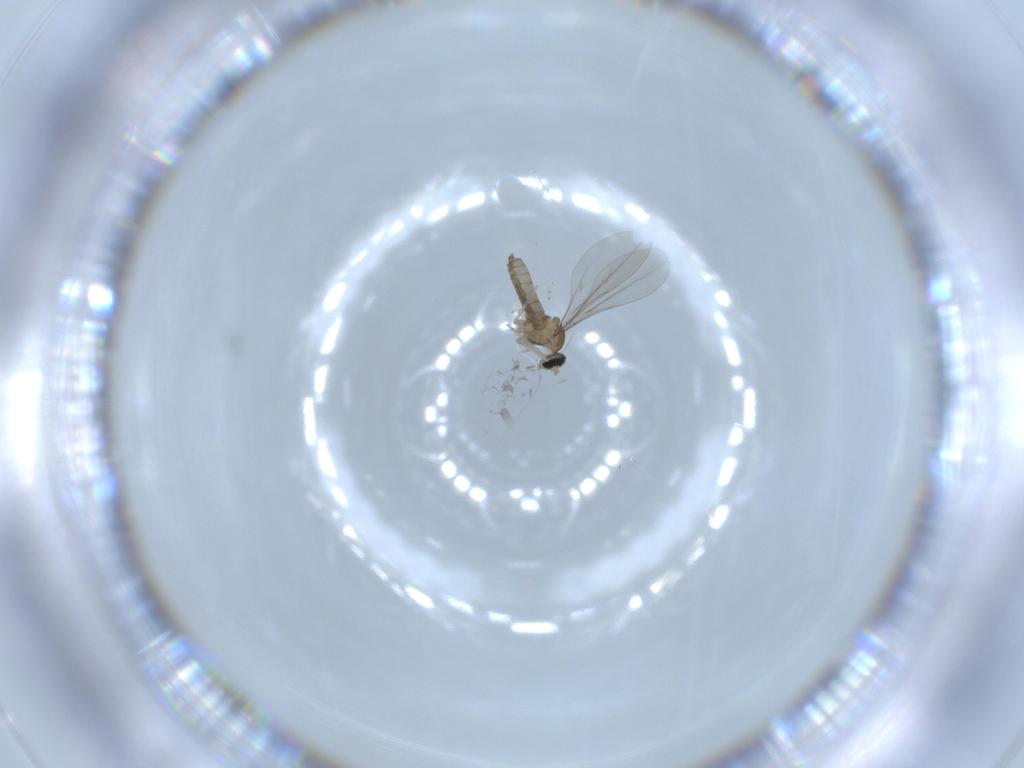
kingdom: Animalia
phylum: Arthropoda
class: Insecta
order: Diptera
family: Cecidomyiidae
